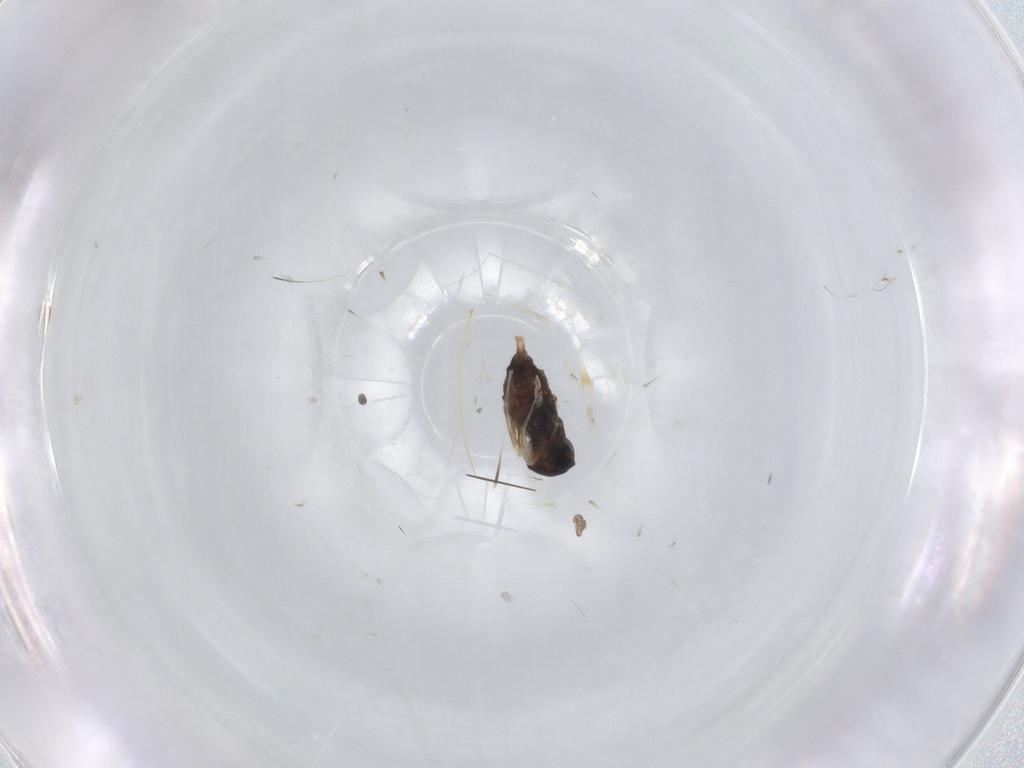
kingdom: Animalia
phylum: Arthropoda
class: Insecta
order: Diptera
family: Cecidomyiidae
